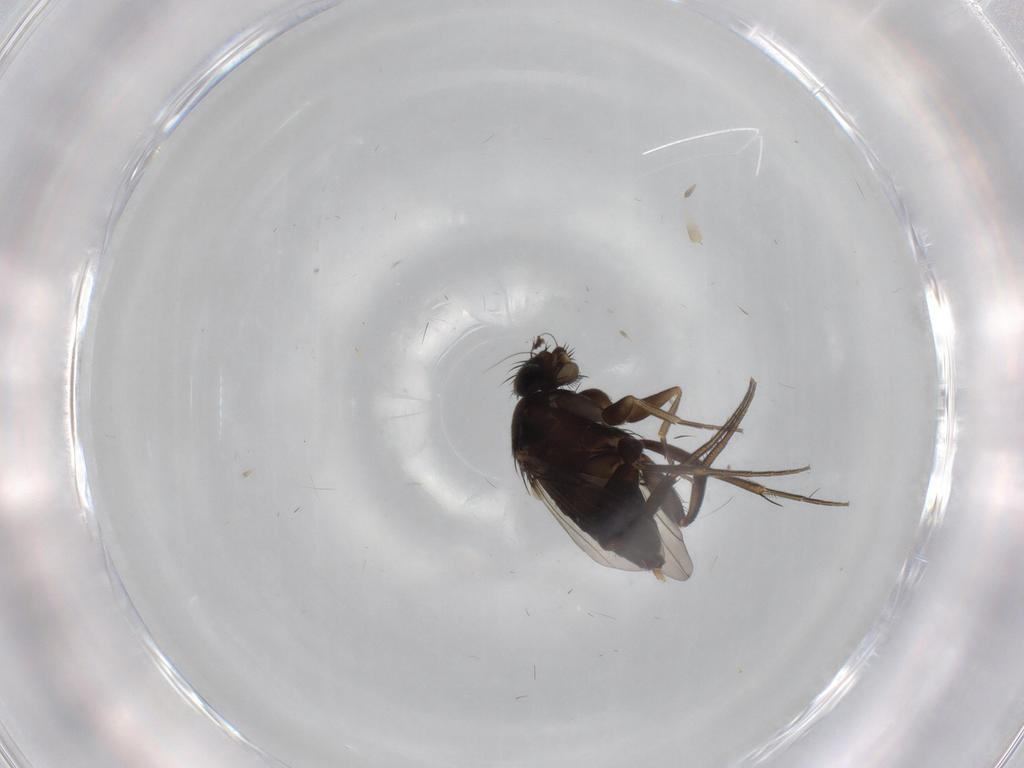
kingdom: Animalia
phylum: Arthropoda
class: Insecta
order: Diptera
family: Phoridae
